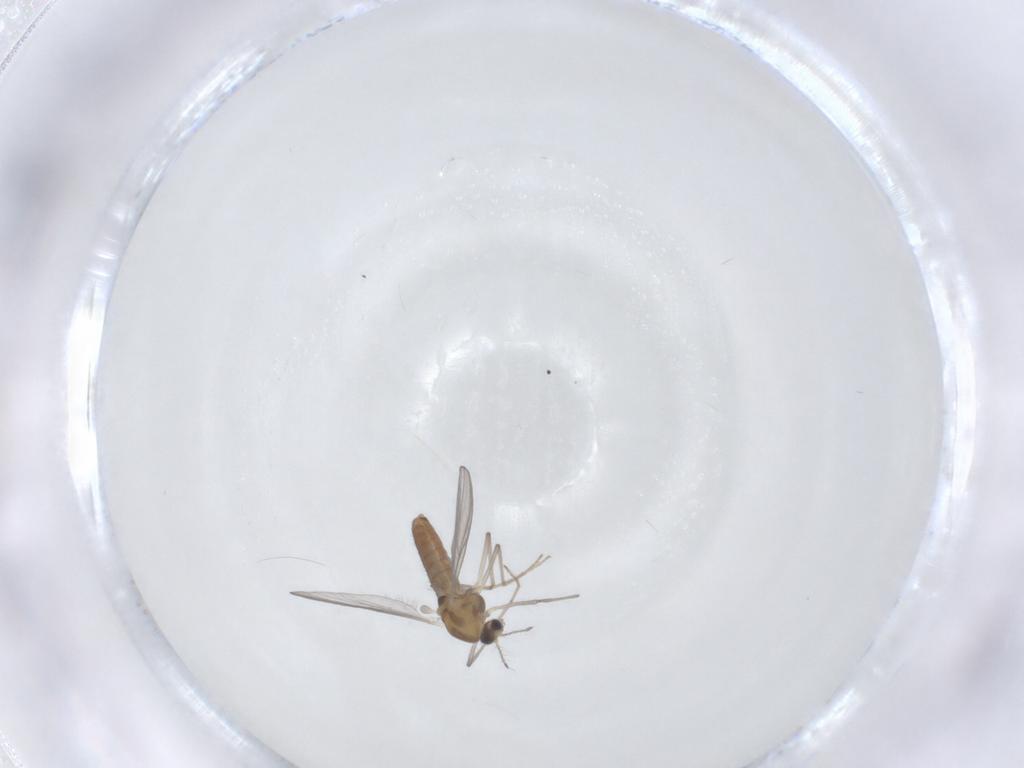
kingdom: Animalia
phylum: Arthropoda
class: Insecta
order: Diptera
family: Chironomidae
